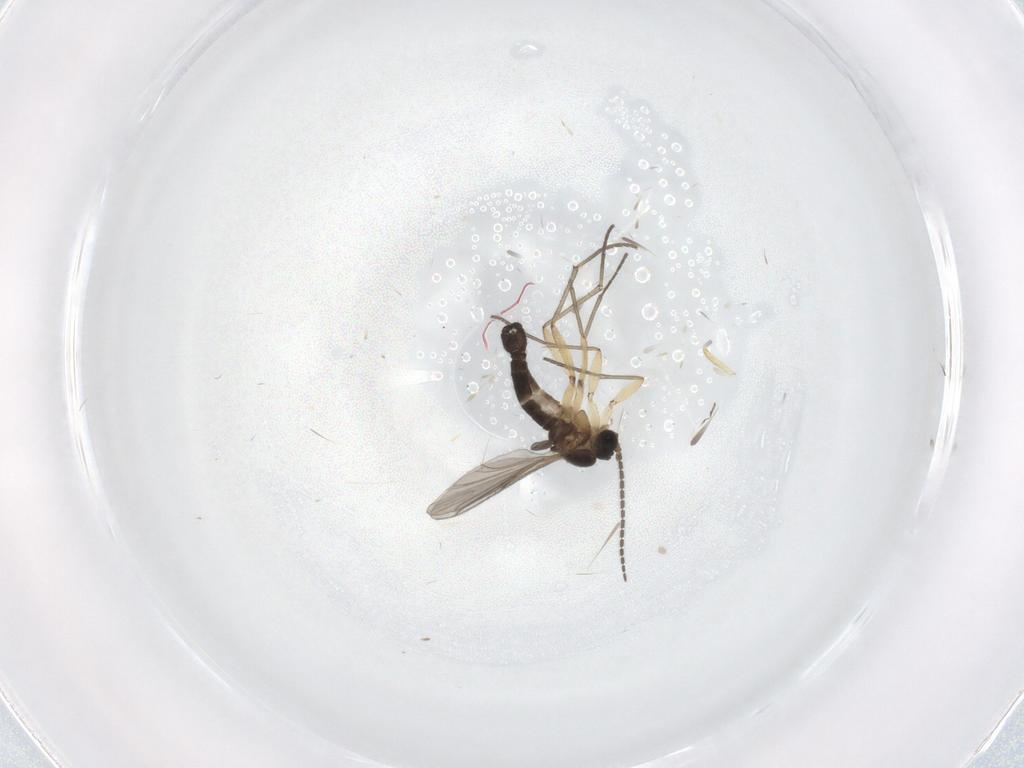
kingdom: Animalia
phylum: Arthropoda
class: Insecta
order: Diptera
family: Cecidomyiidae
